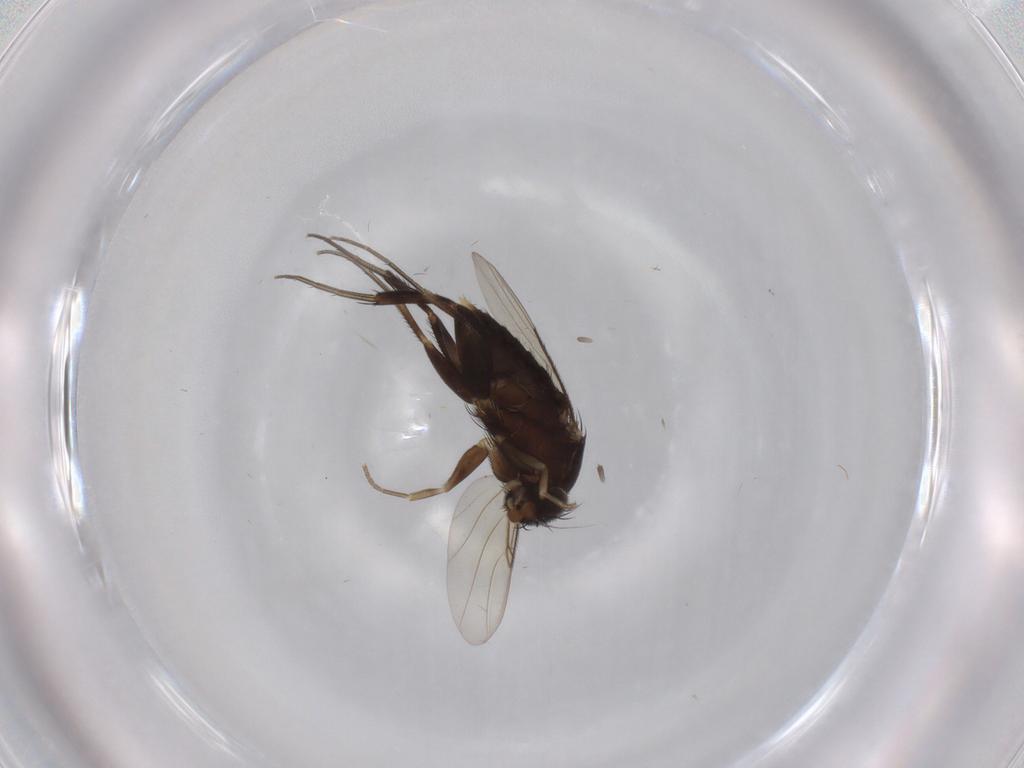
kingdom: Animalia
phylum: Arthropoda
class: Insecta
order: Diptera
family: Phoridae
